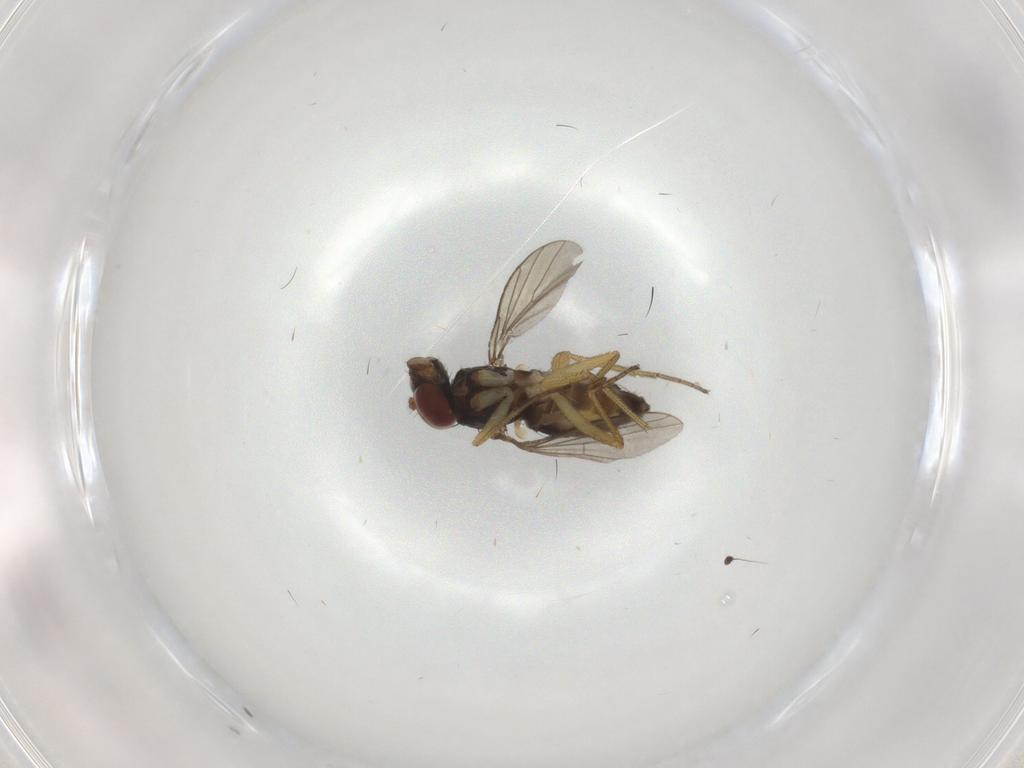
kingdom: Animalia
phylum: Arthropoda
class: Insecta
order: Diptera
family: Dolichopodidae
